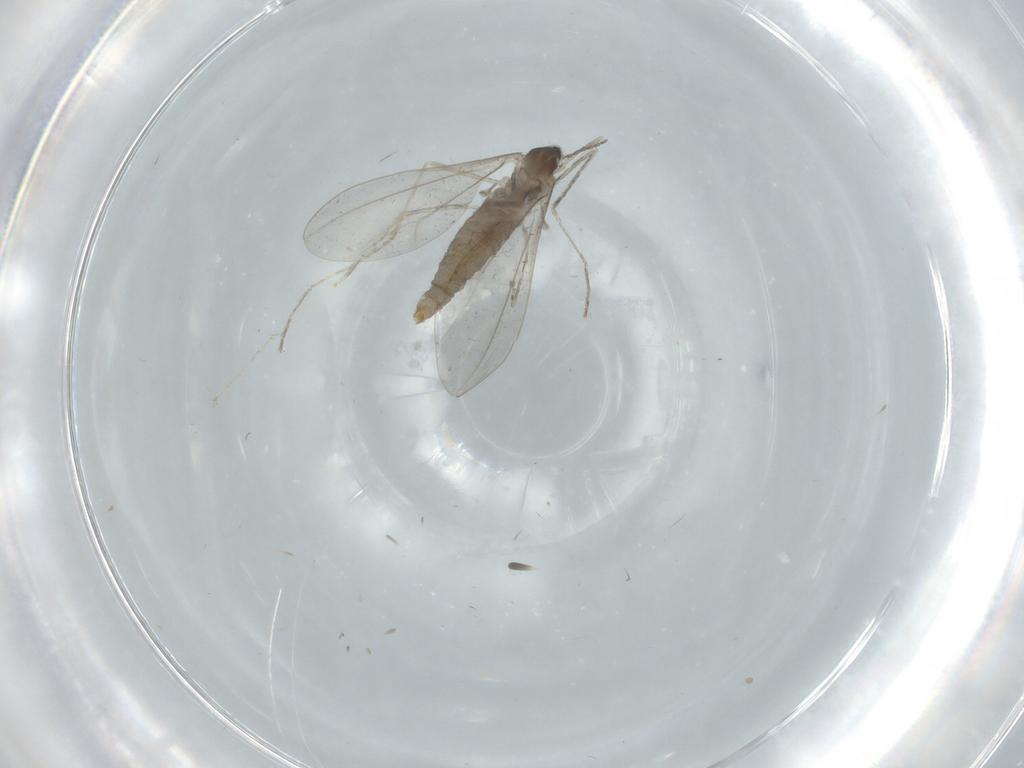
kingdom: Animalia
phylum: Arthropoda
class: Insecta
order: Diptera
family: Cecidomyiidae
